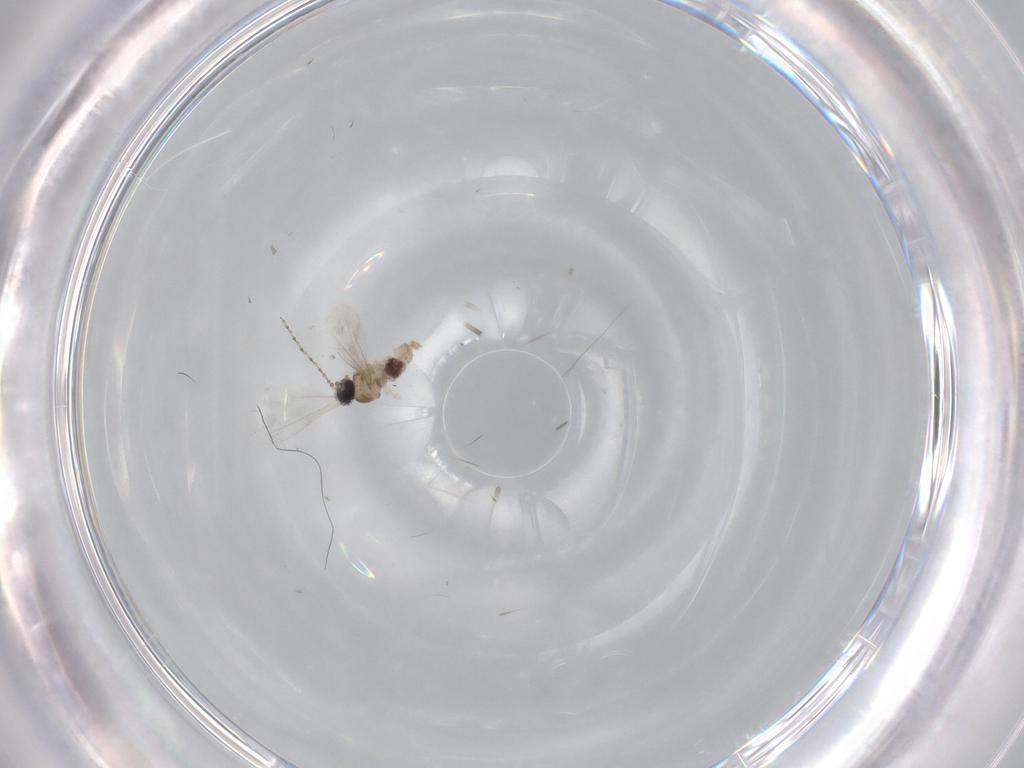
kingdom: Animalia
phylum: Arthropoda
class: Insecta
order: Diptera
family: Cecidomyiidae
